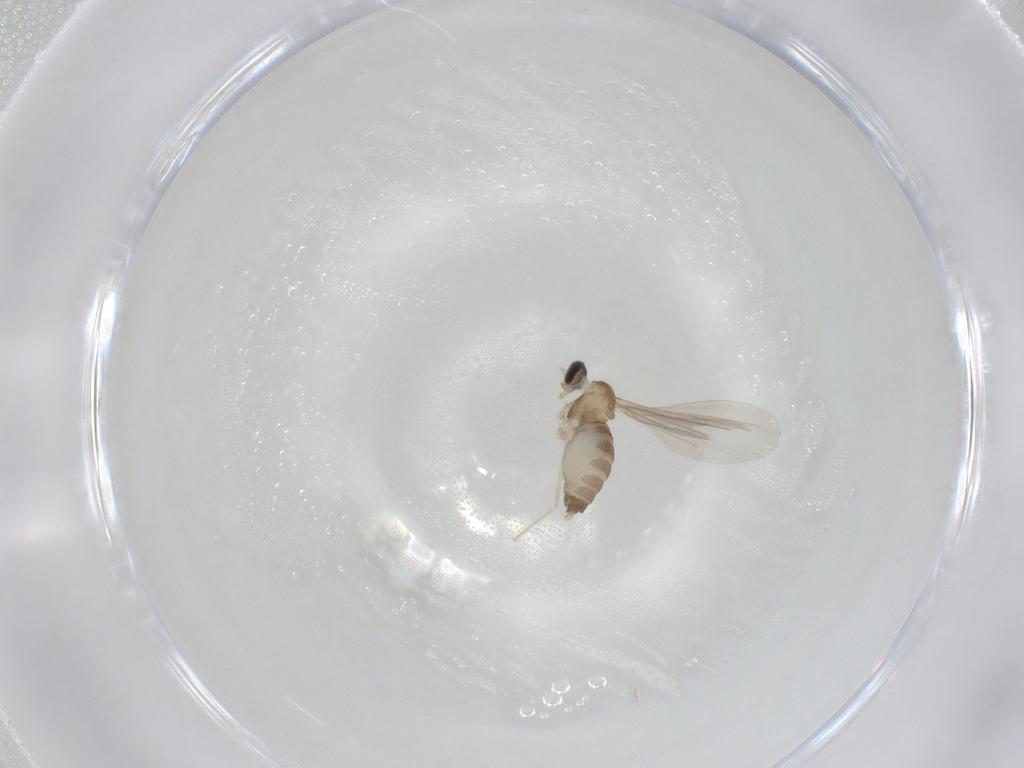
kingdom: Animalia
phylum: Arthropoda
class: Insecta
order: Diptera
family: Cecidomyiidae
